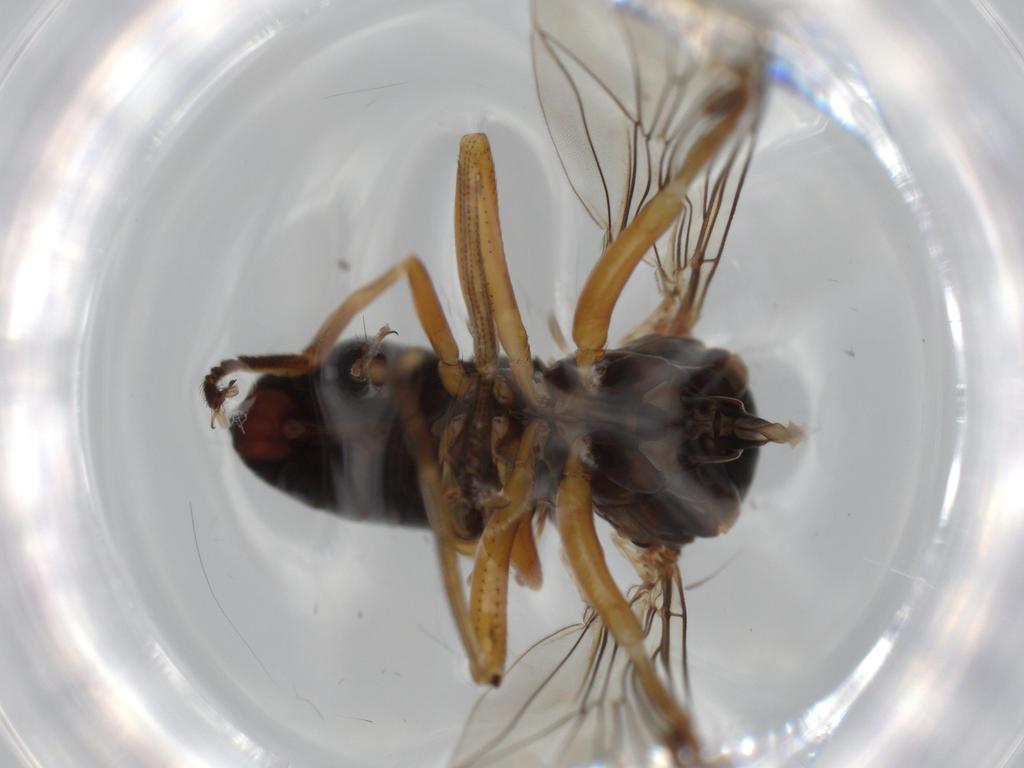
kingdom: Animalia
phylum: Arthropoda
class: Insecta
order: Diptera
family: Pipunculidae
